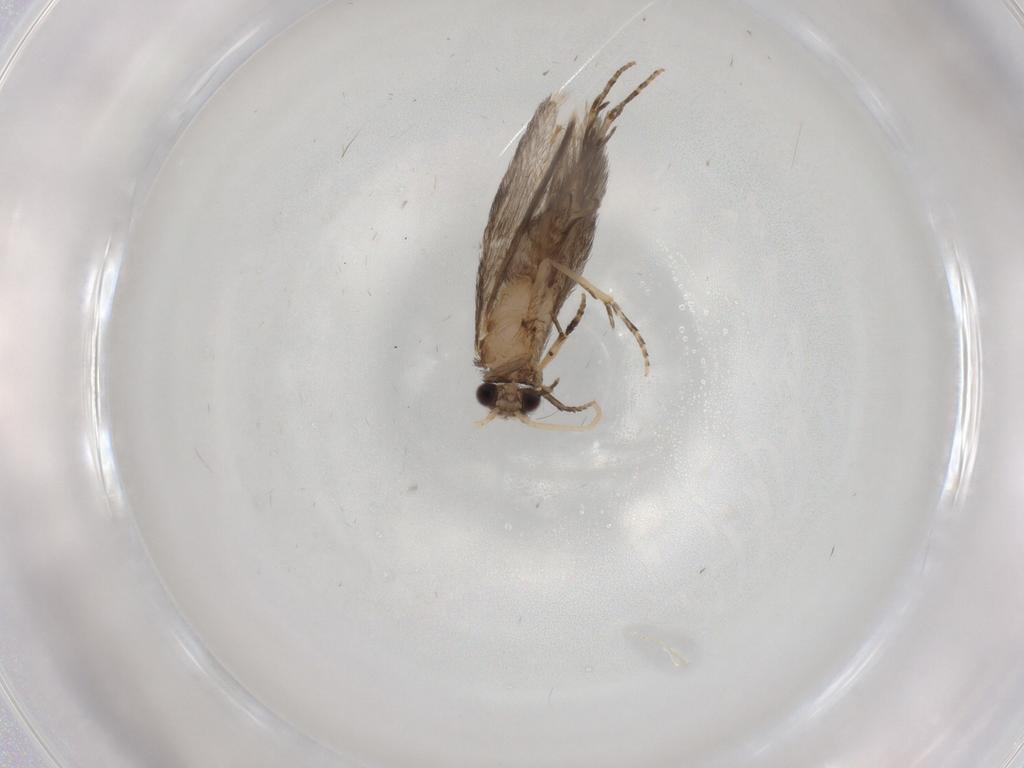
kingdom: Animalia
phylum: Arthropoda
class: Insecta
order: Trichoptera
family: Hydroptilidae
